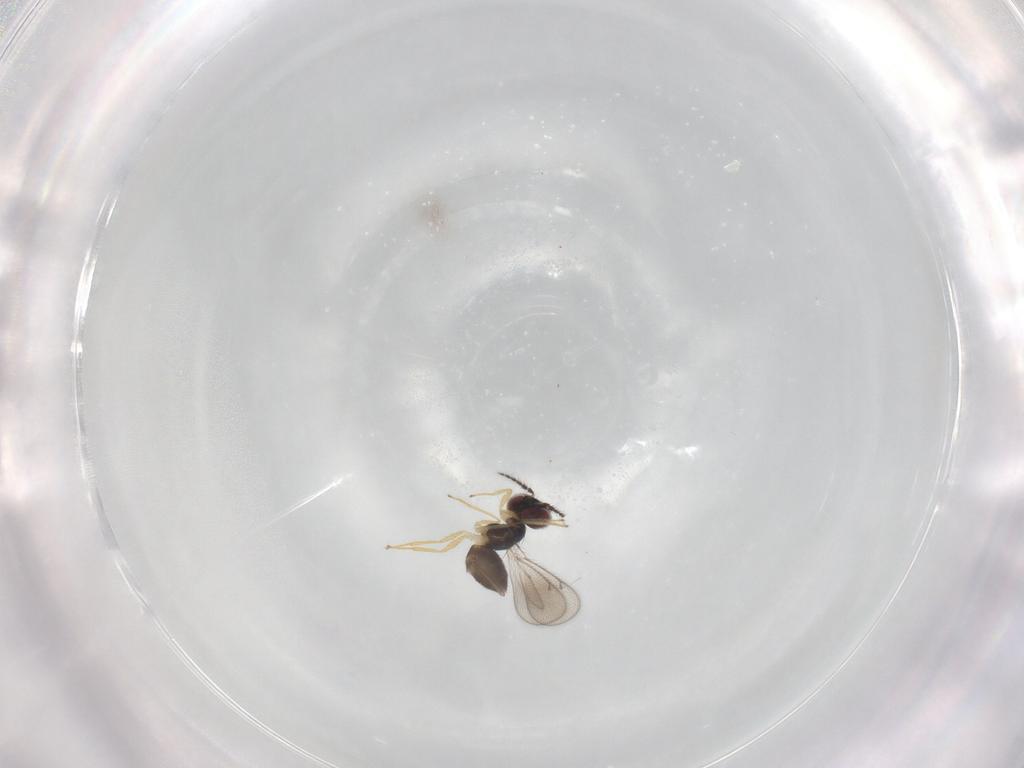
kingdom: Animalia
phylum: Arthropoda
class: Insecta
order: Hymenoptera
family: Eulophidae
